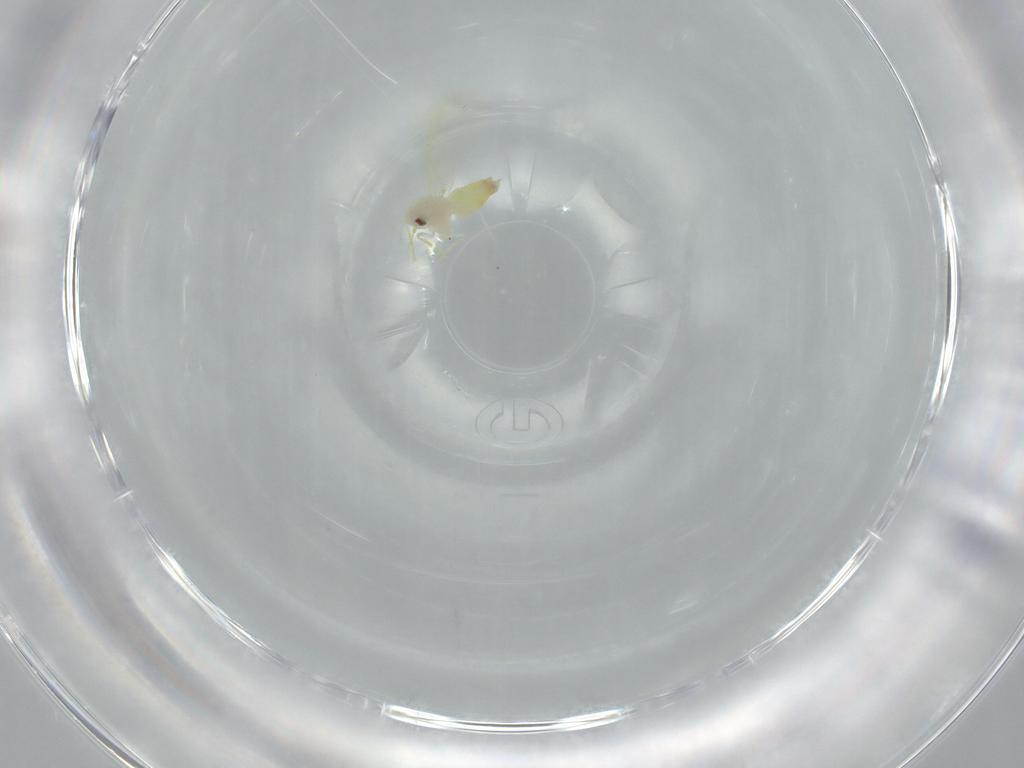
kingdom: Animalia
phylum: Arthropoda
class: Insecta
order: Hemiptera
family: Aleyrodidae
